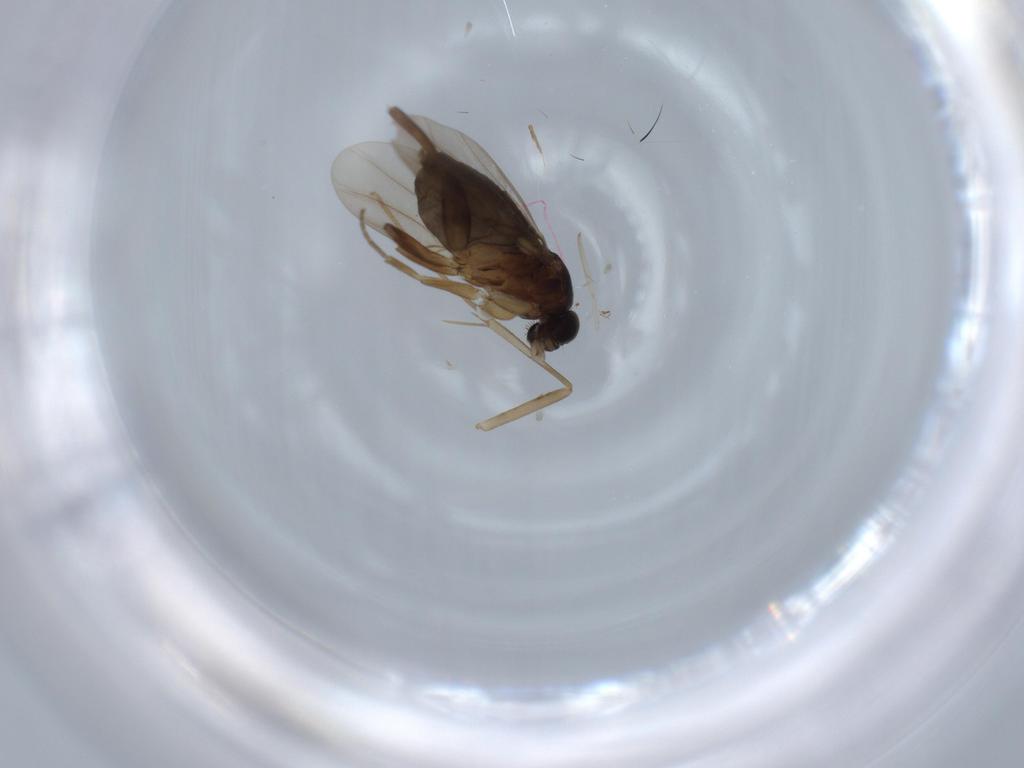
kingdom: Animalia
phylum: Arthropoda
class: Insecta
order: Diptera
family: Phoridae
